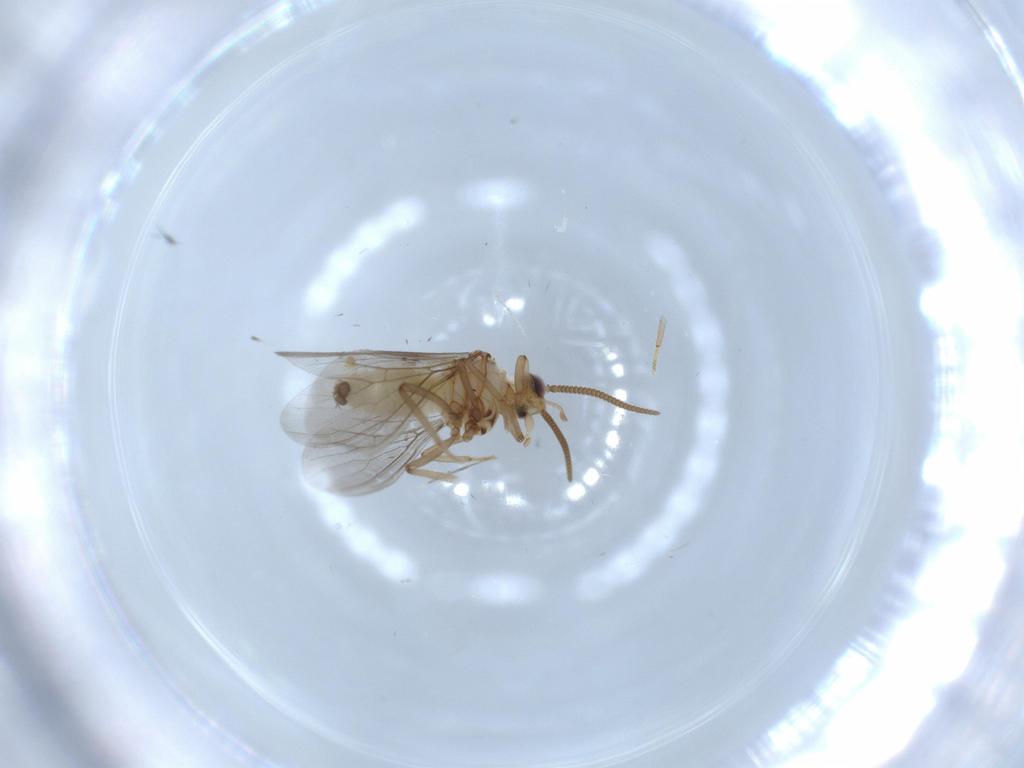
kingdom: Animalia
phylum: Arthropoda
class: Insecta
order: Neuroptera
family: Coniopterygidae
